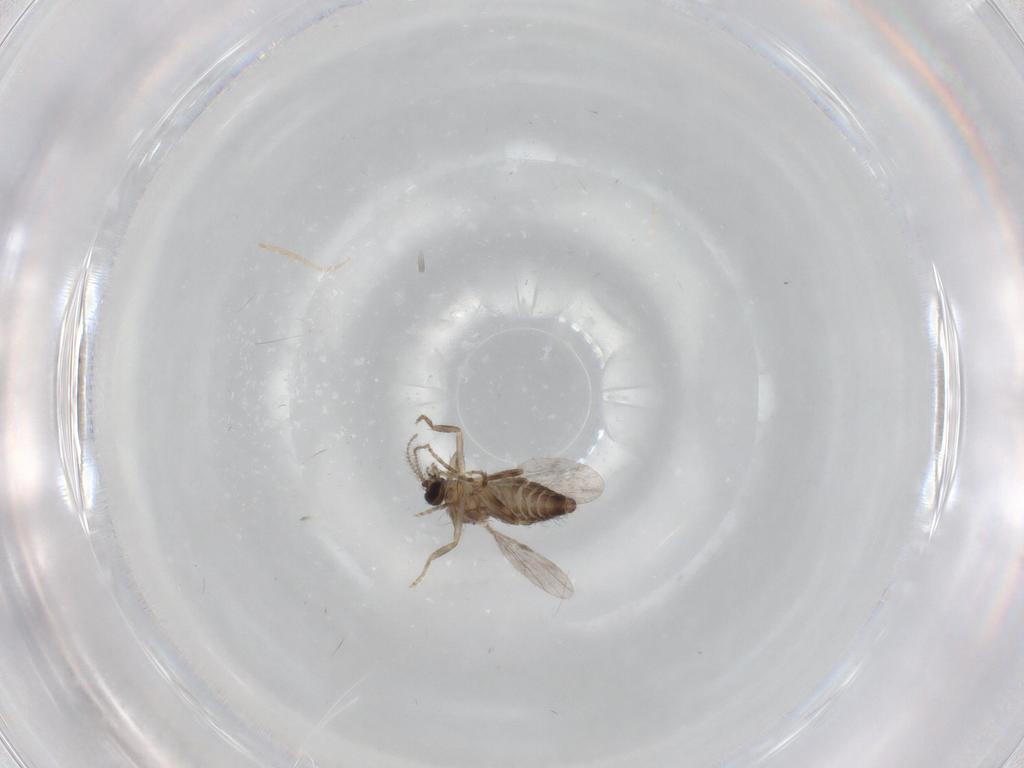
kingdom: Animalia
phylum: Arthropoda
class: Insecta
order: Diptera
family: Ceratopogonidae
